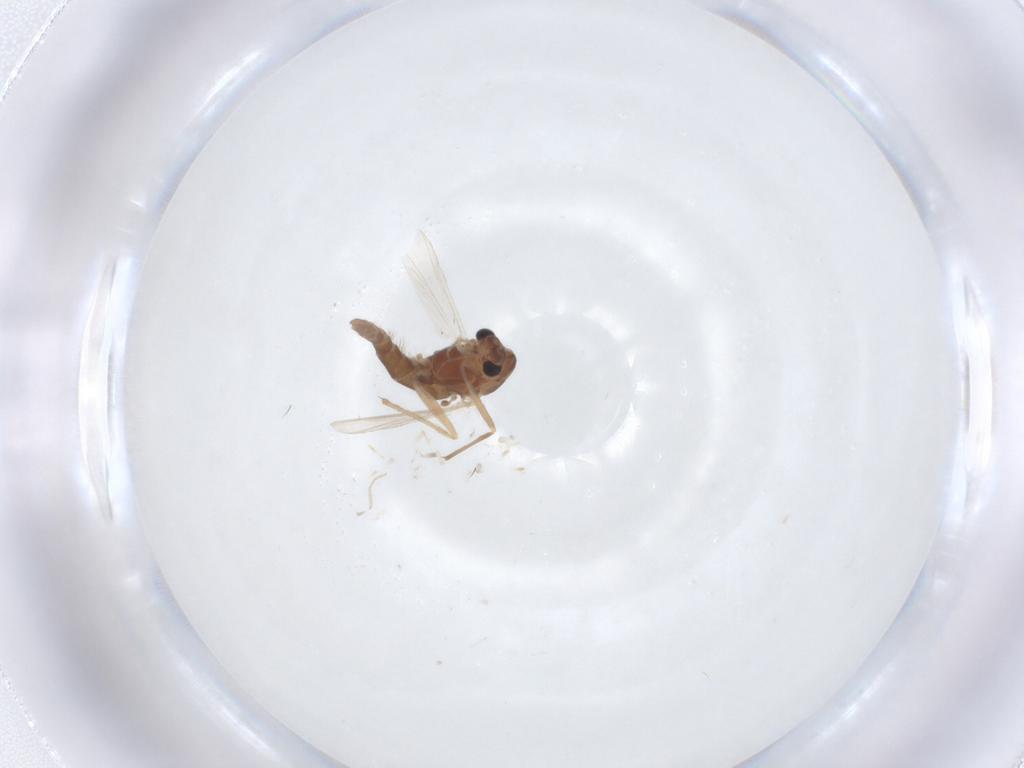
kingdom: Animalia
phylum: Arthropoda
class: Insecta
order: Diptera
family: Chironomidae
